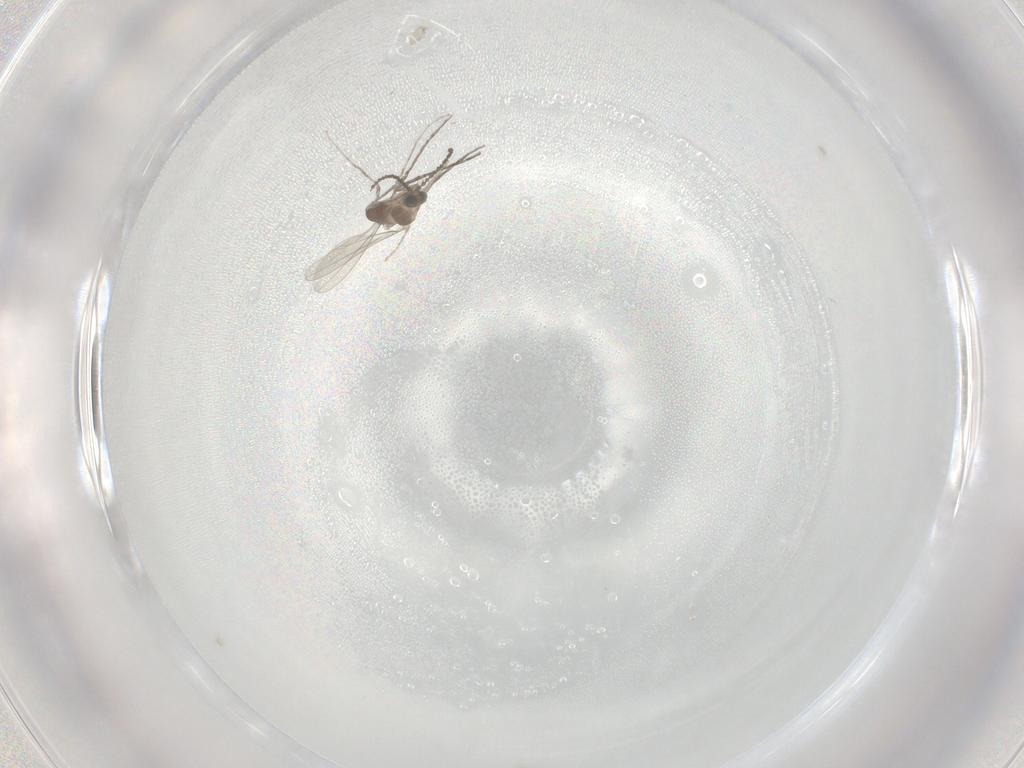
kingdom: Animalia
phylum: Arthropoda
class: Insecta
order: Diptera
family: Cecidomyiidae
